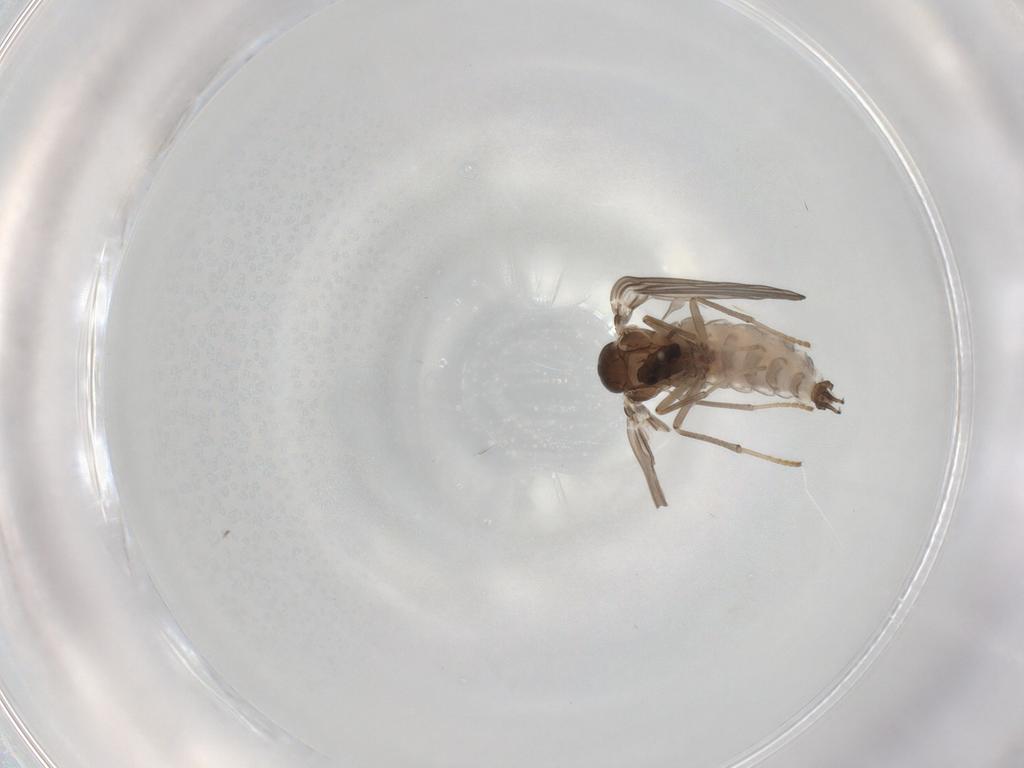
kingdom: Animalia
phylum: Arthropoda
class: Insecta
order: Diptera
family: Psychodidae
